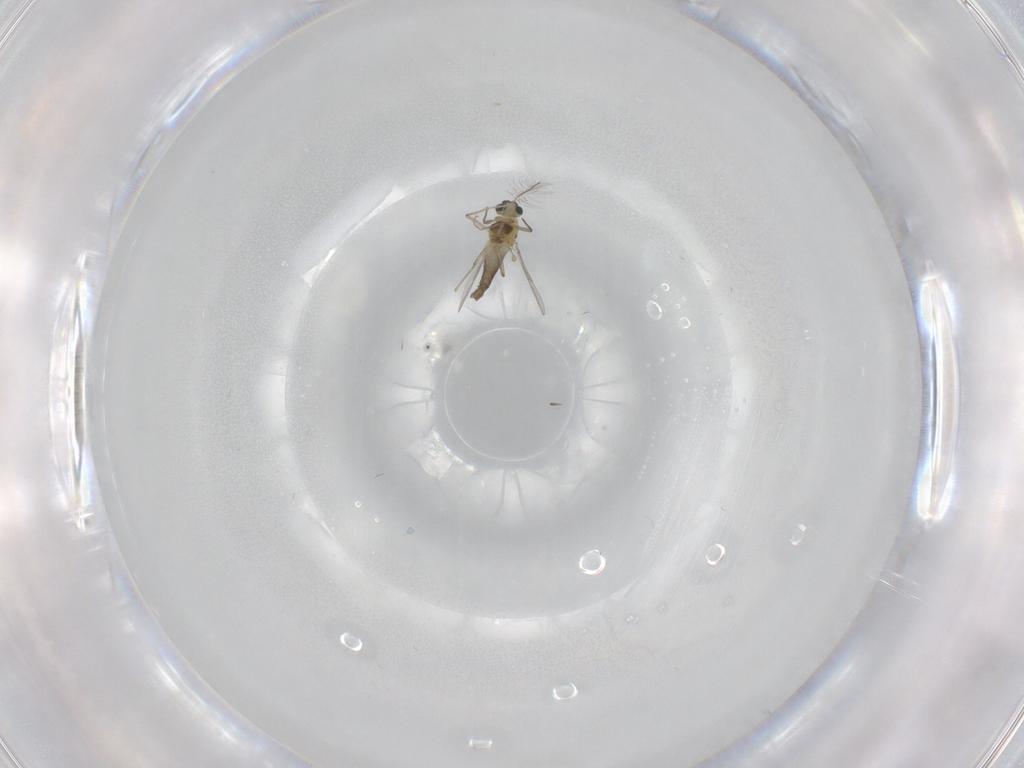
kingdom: Animalia
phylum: Arthropoda
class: Insecta
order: Diptera
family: Chironomidae
